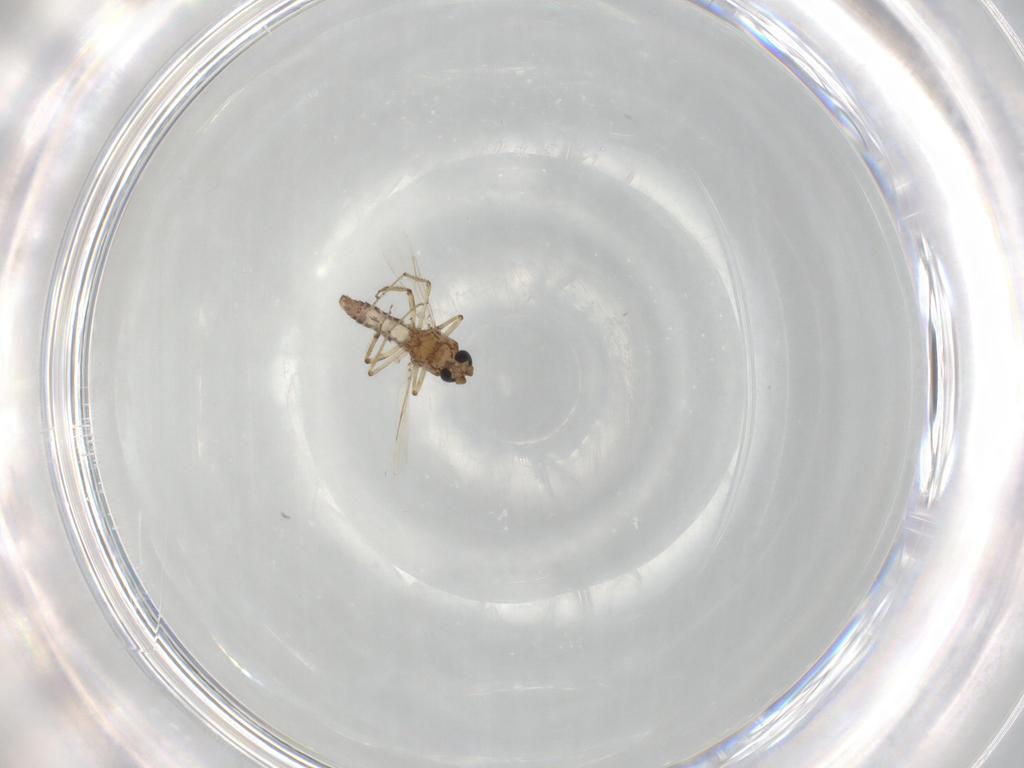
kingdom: Animalia
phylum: Arthropoda
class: Insecta
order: Diptera
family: Ceratopogonidae
